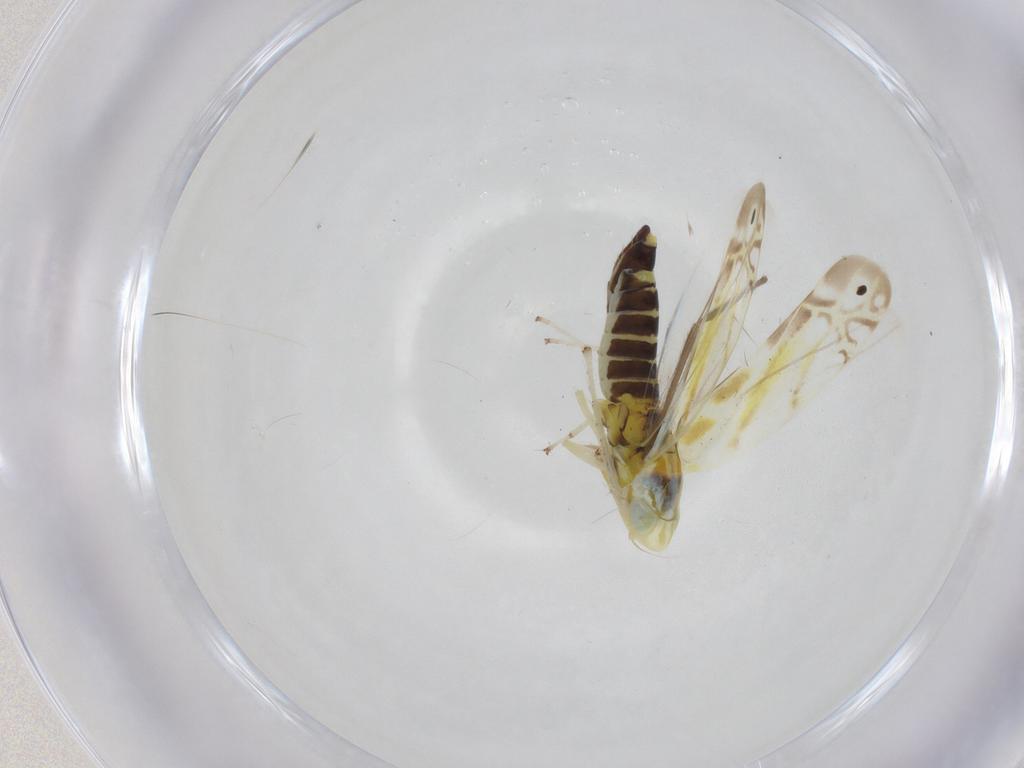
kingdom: Animalia
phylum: Arthropoda
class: Insecta
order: Hemiptera
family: Cicadellidae
